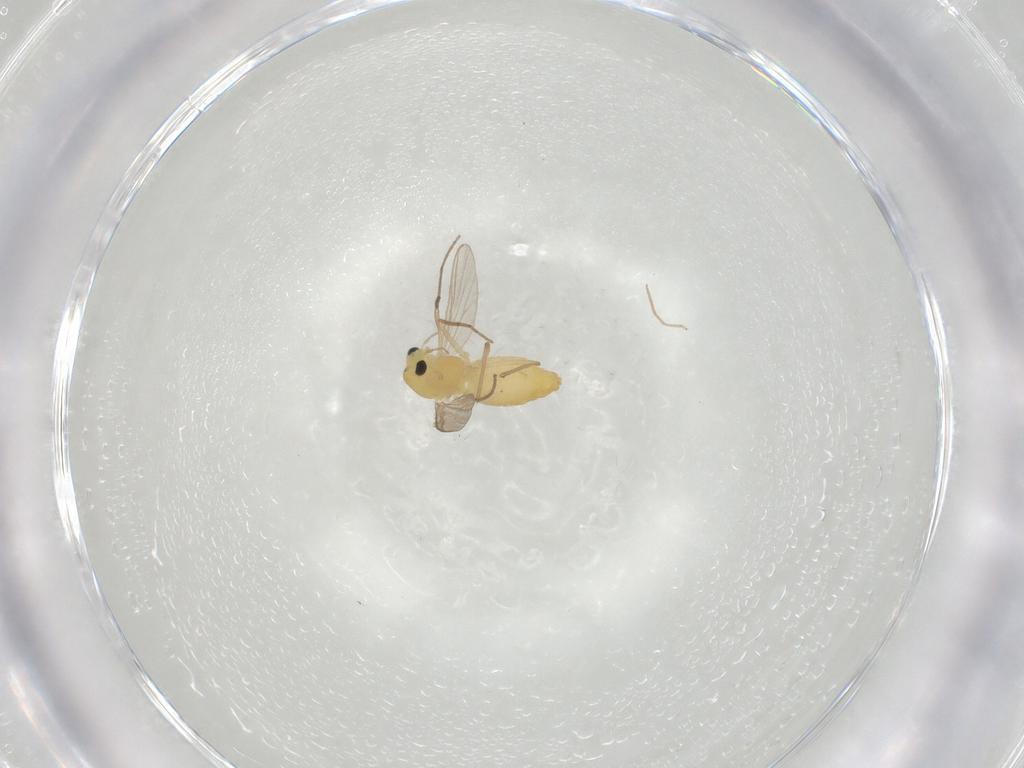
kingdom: Animalia
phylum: Arthropoda
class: Insecta
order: Diptera
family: Chironomidae
